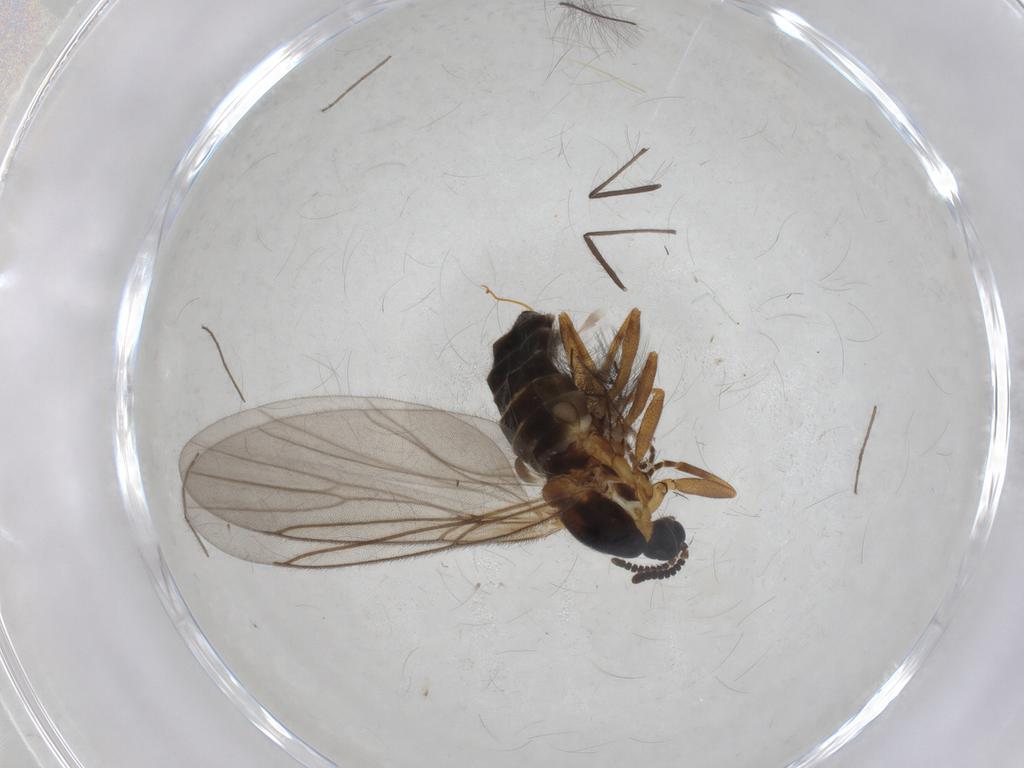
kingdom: Animalia
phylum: Arthropoda
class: Insecta
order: Diptera
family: Scatopsidae
